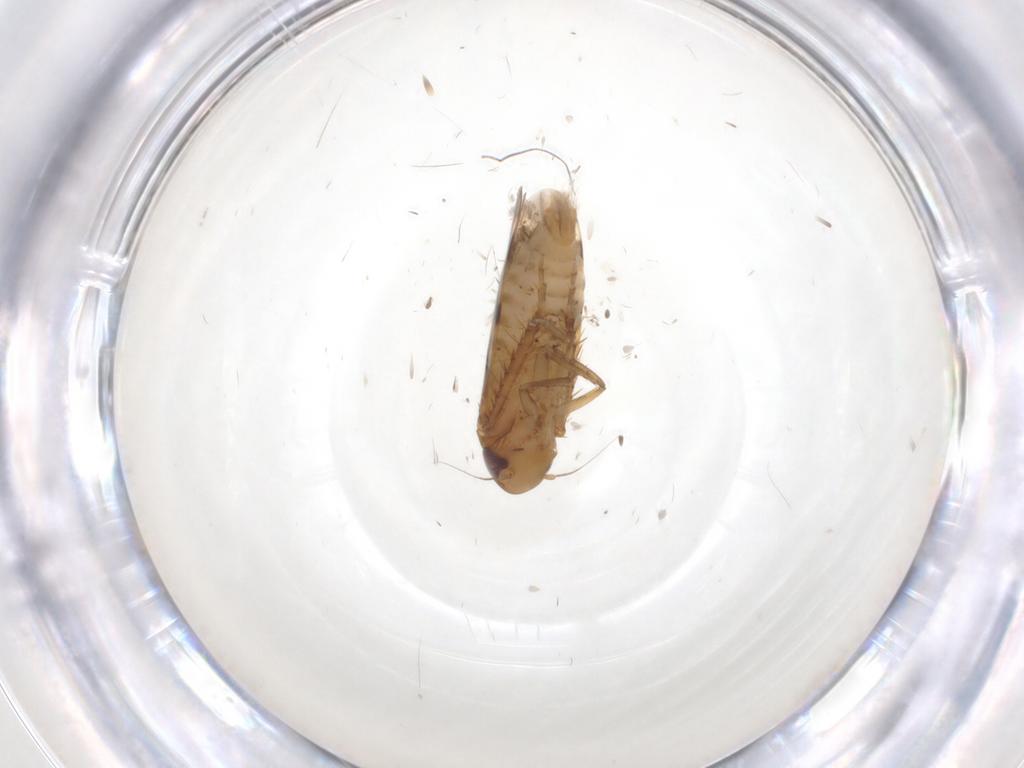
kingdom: Animalia
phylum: Arthropoda
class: Insecta
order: Hemiptera
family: Cicadellidae
